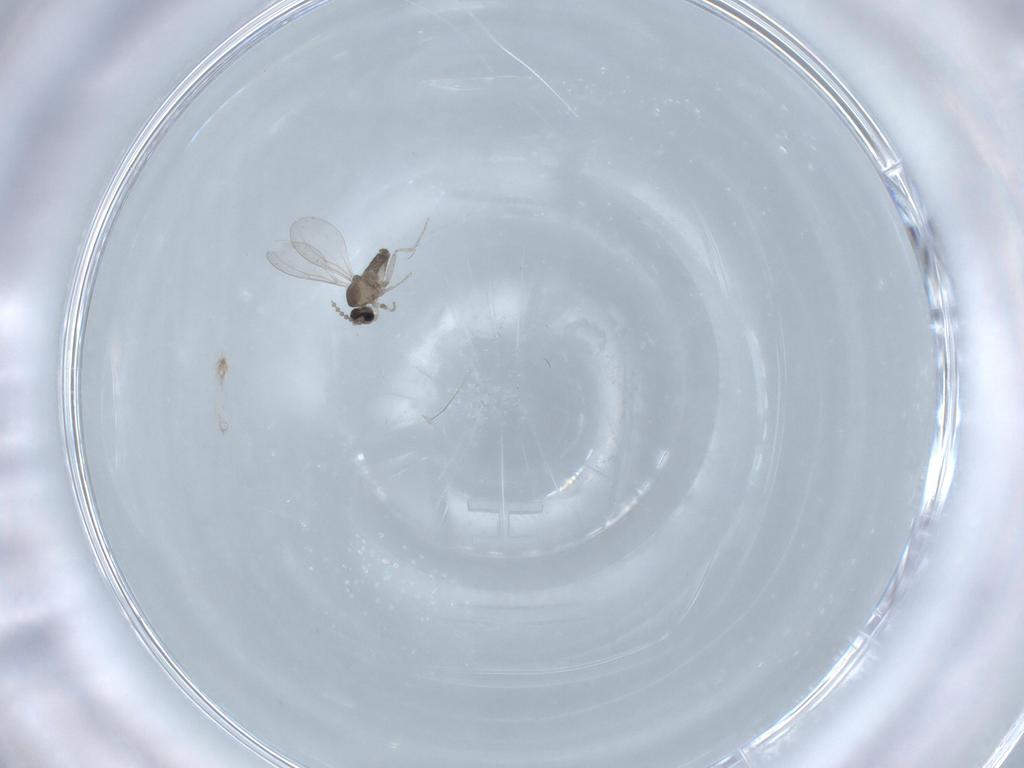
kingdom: Animalia
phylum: Arthropoda
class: Insecta
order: Diptera
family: Cecidomyiidae
